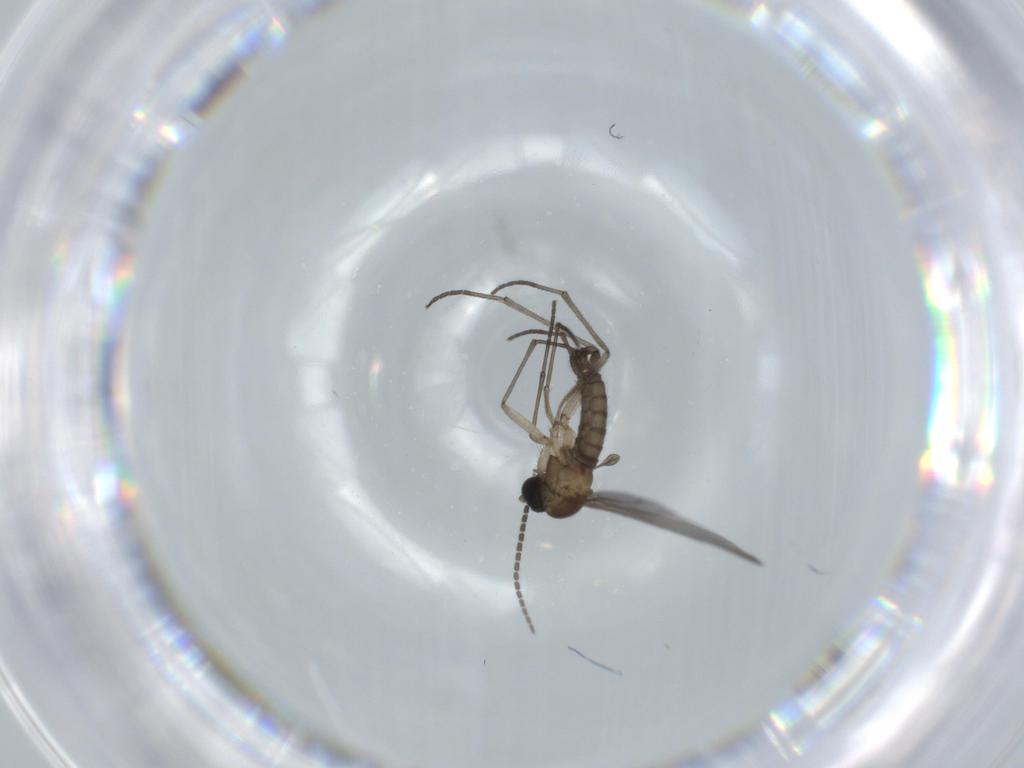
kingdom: Animalia
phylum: Arthropoda
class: Insecta
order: Diptera
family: Sciaridae
